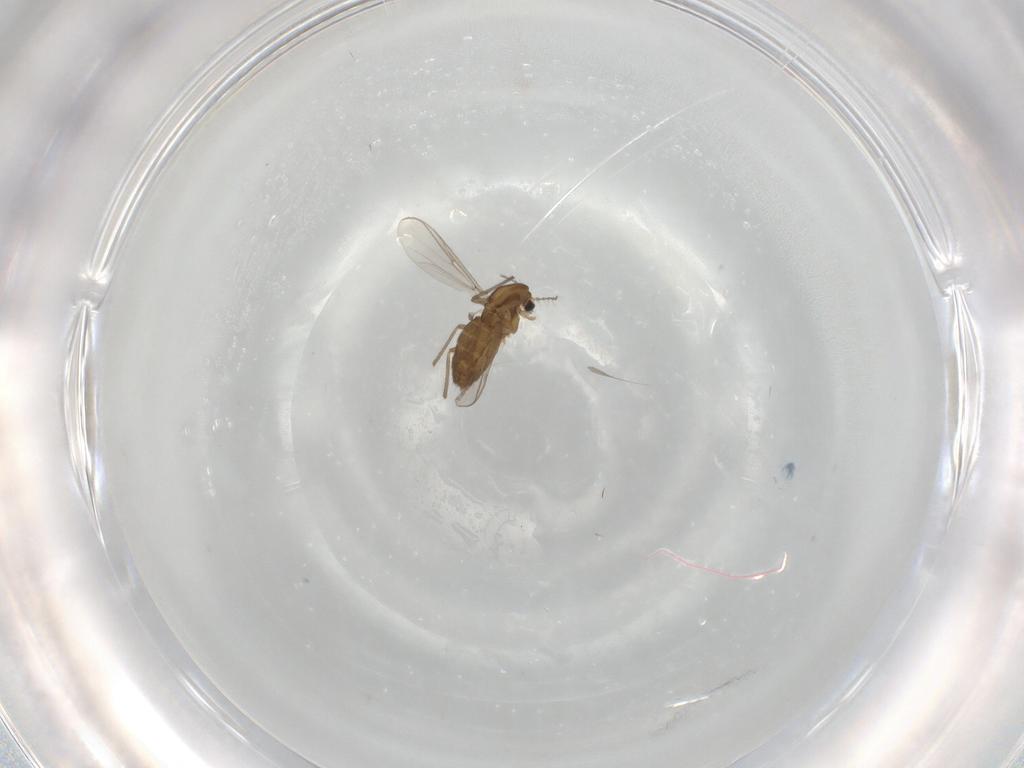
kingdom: Animalia
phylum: Arthropoda
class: Insecta
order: Diptera
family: Chironomidae
